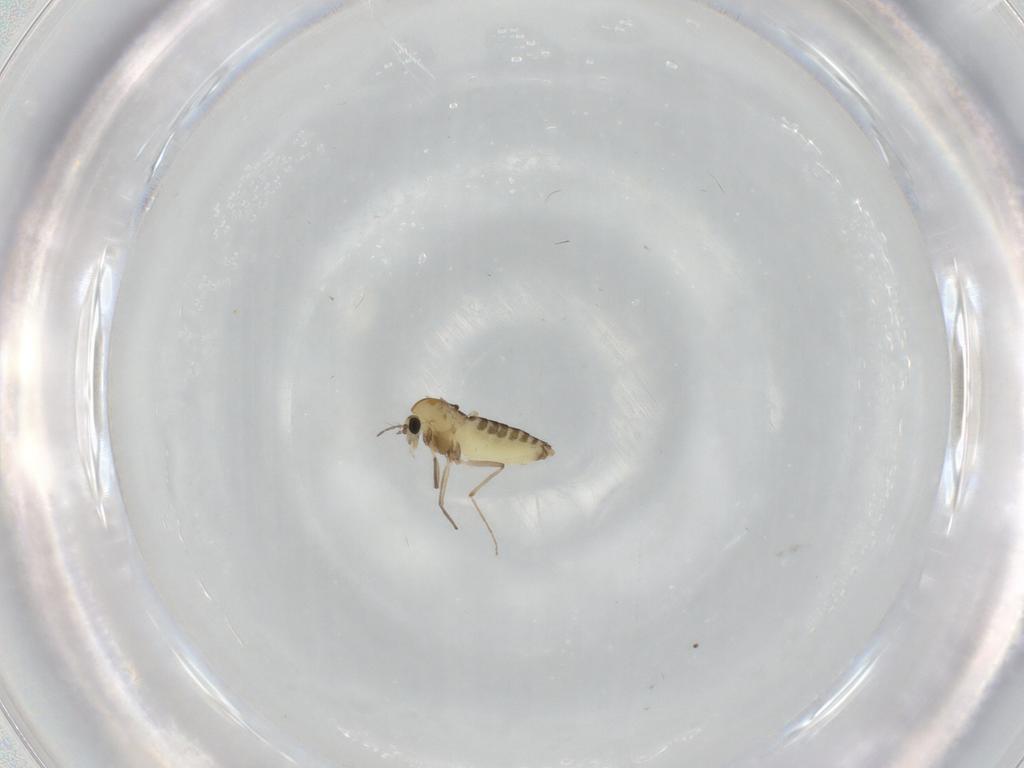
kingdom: Animalia
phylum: Arthropoda
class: Insecta
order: Diptera
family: Chironomidae
